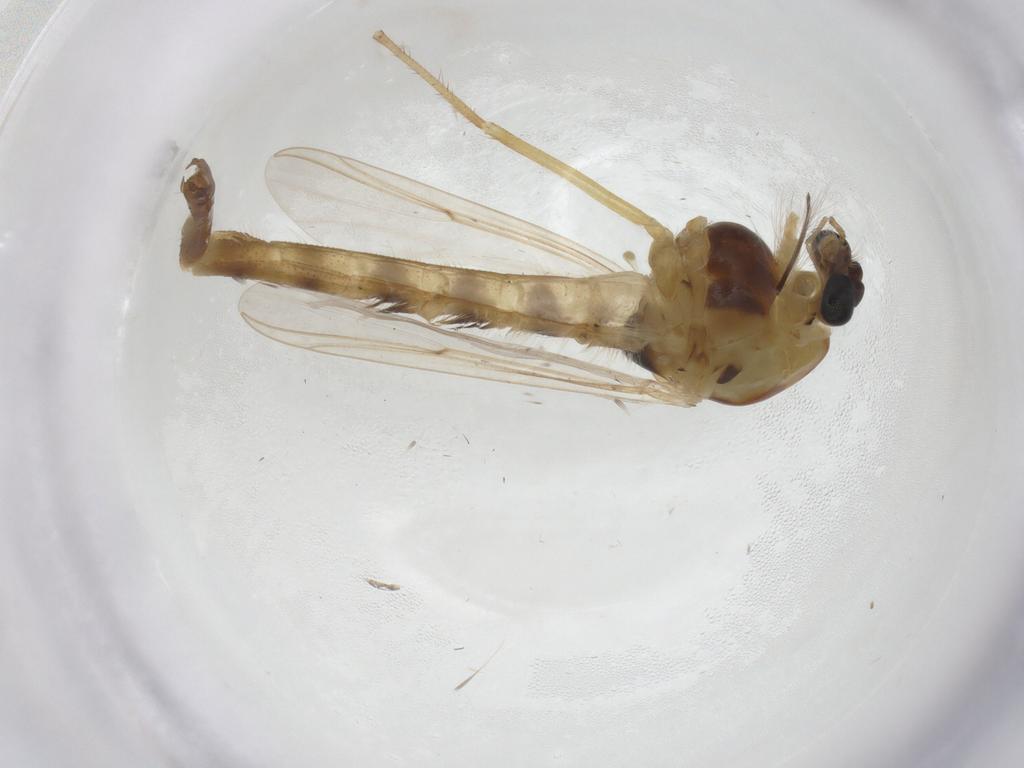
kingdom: Animalia
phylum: Arthropoda
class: Insecta
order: Diptera
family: Chironomidae
